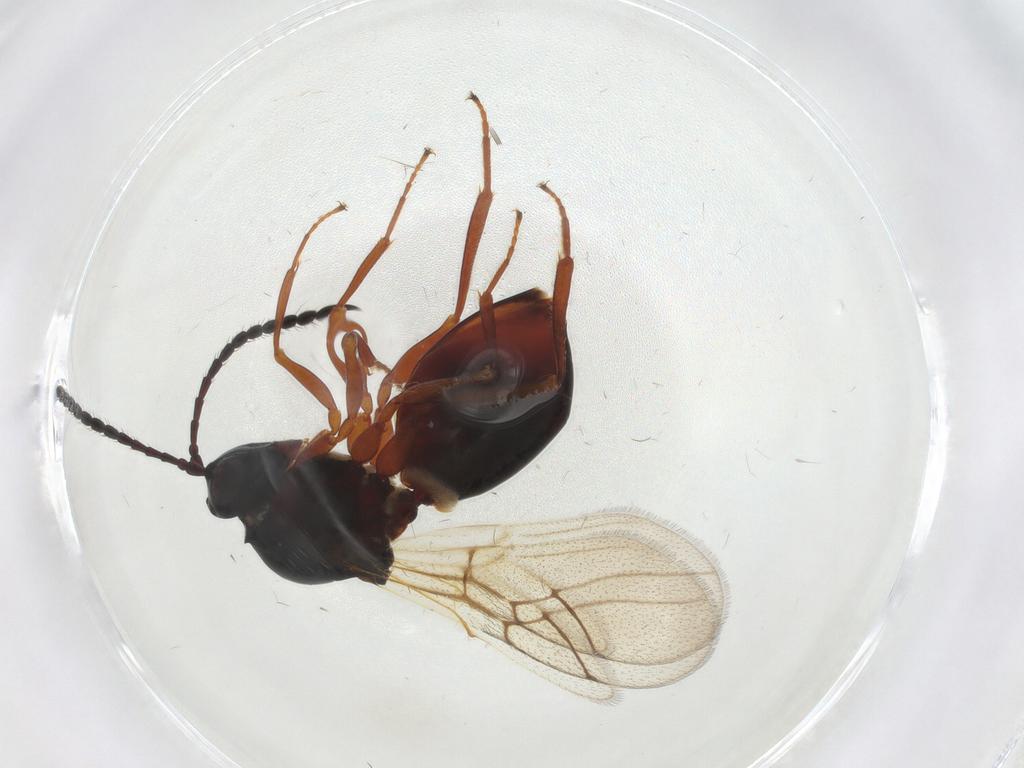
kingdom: Animalia
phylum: Arthropoda
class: Insecta
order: Hymenoptera
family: Figitidae
